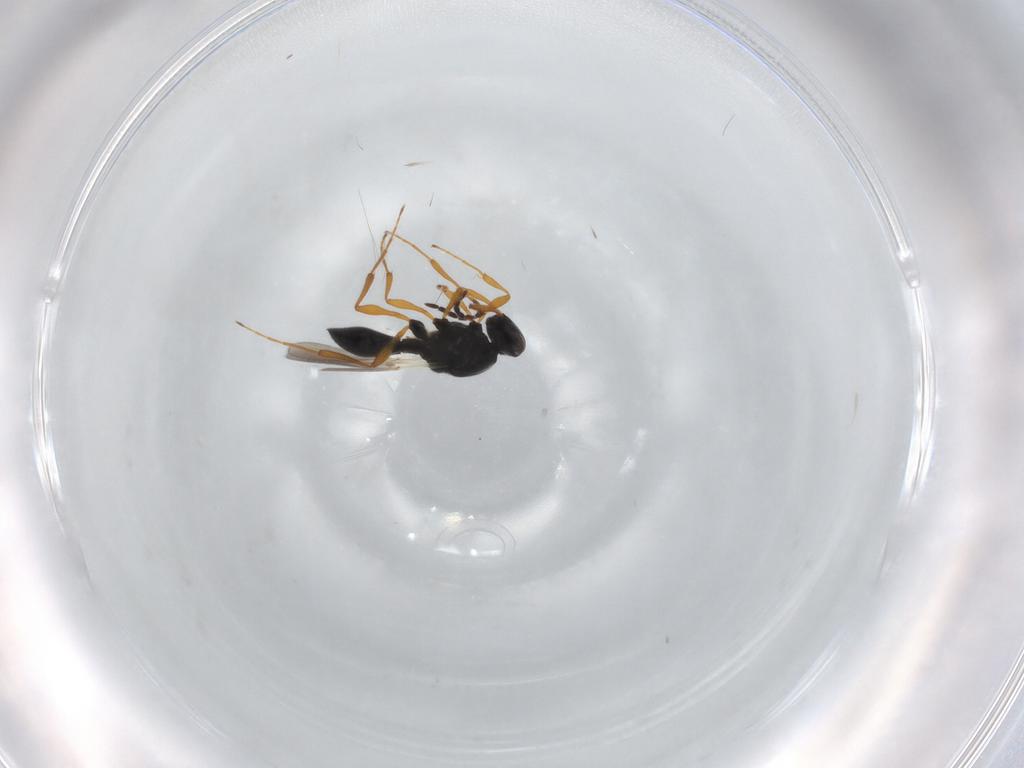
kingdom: Animalia
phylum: Arthropoda
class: Insecta
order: Hymenoptera
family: Platygastridae
